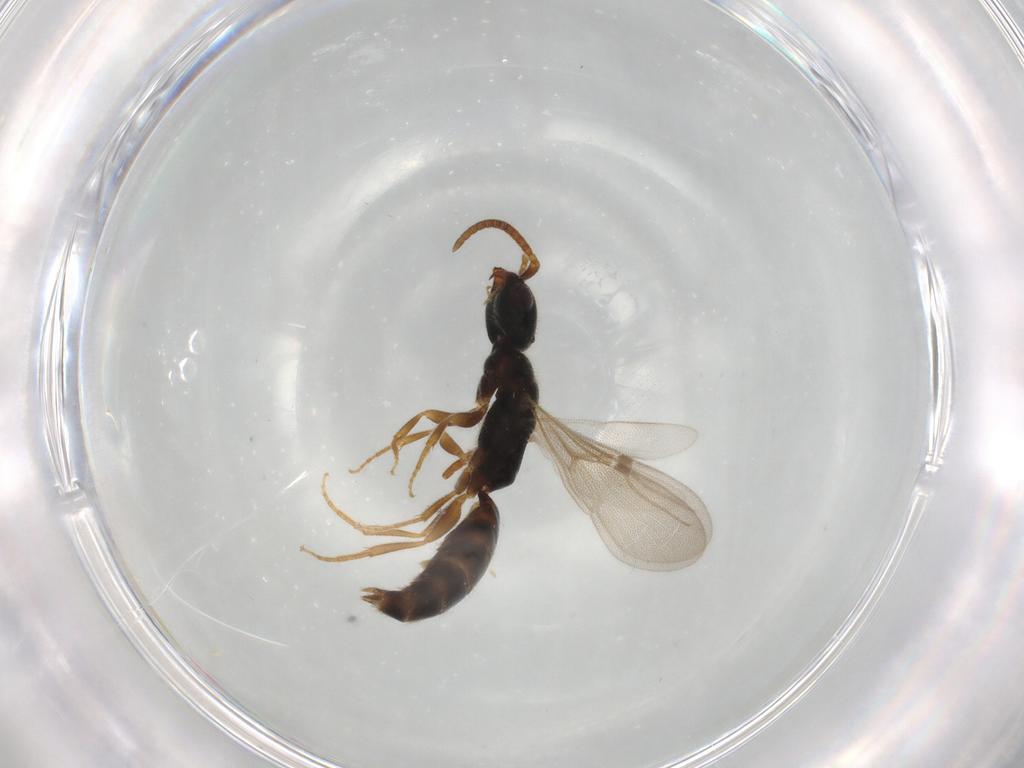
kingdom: Animalia
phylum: Arthropoda
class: Insecta
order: Hymenoptera
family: Bethylidae
